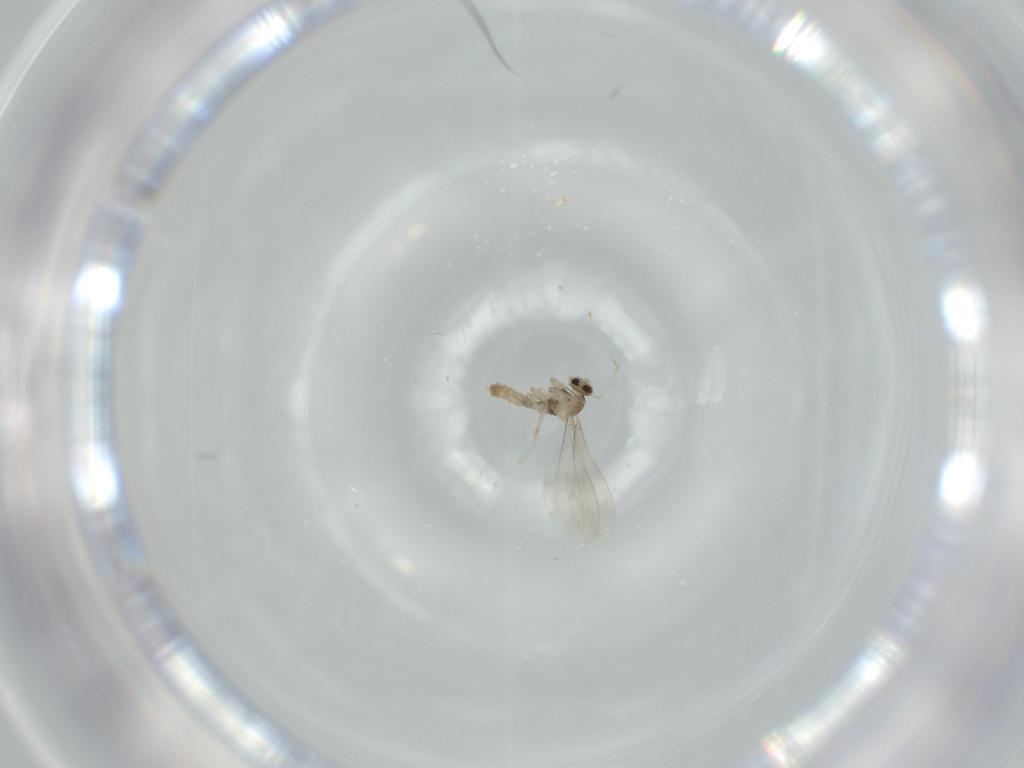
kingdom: Animalia
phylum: Arthropoda
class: Insecta
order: Diptera
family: Cecidomyiidae
